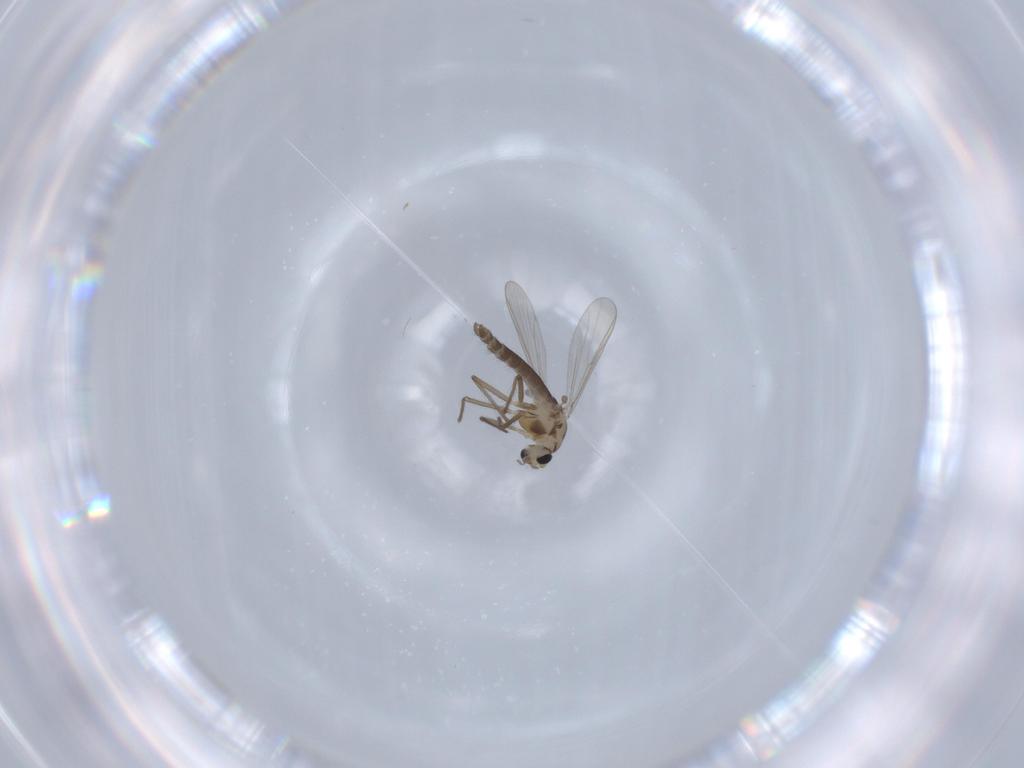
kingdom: Animalia
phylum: Arthropoda
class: Insecta
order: Diptera
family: Chironomidae
